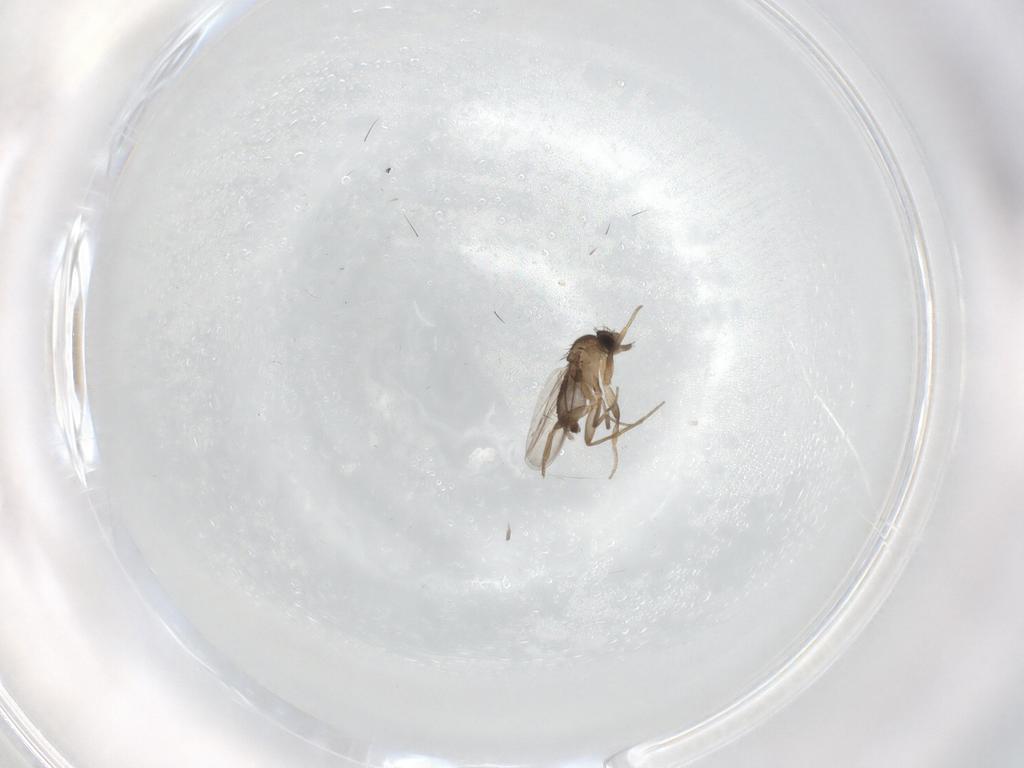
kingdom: Animalia
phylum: Arthropoda
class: Insecta
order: Diptera
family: Phoridae
